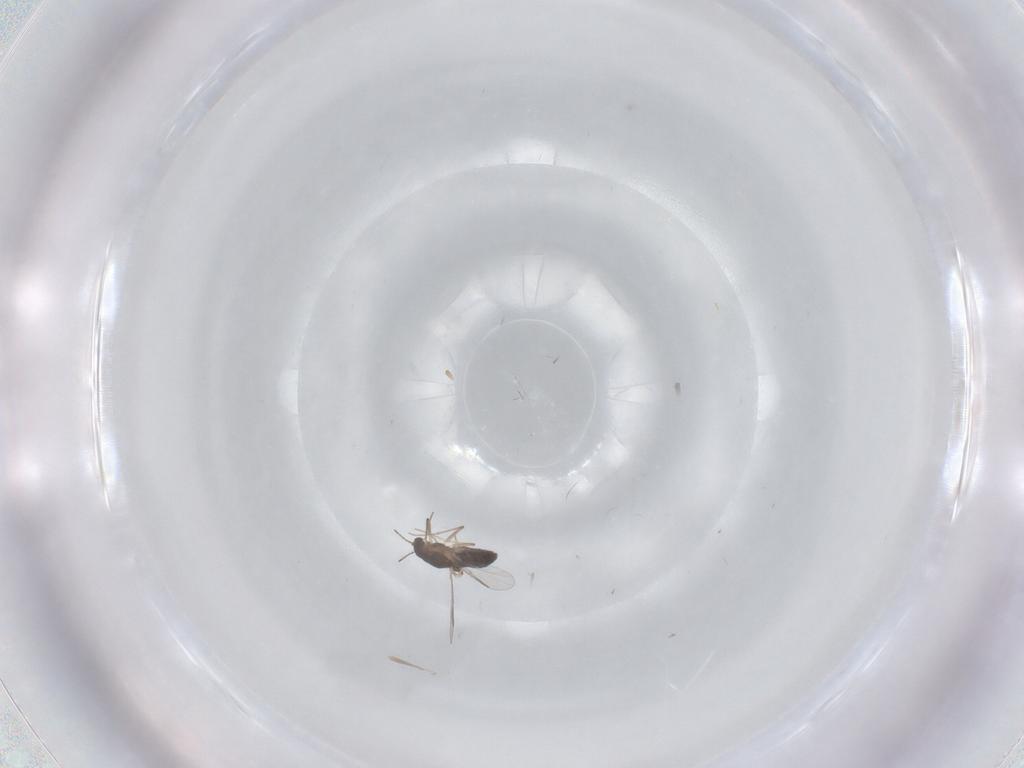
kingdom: Animalia
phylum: Arthropoda
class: Insecta
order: Diptera
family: Chironomidae
